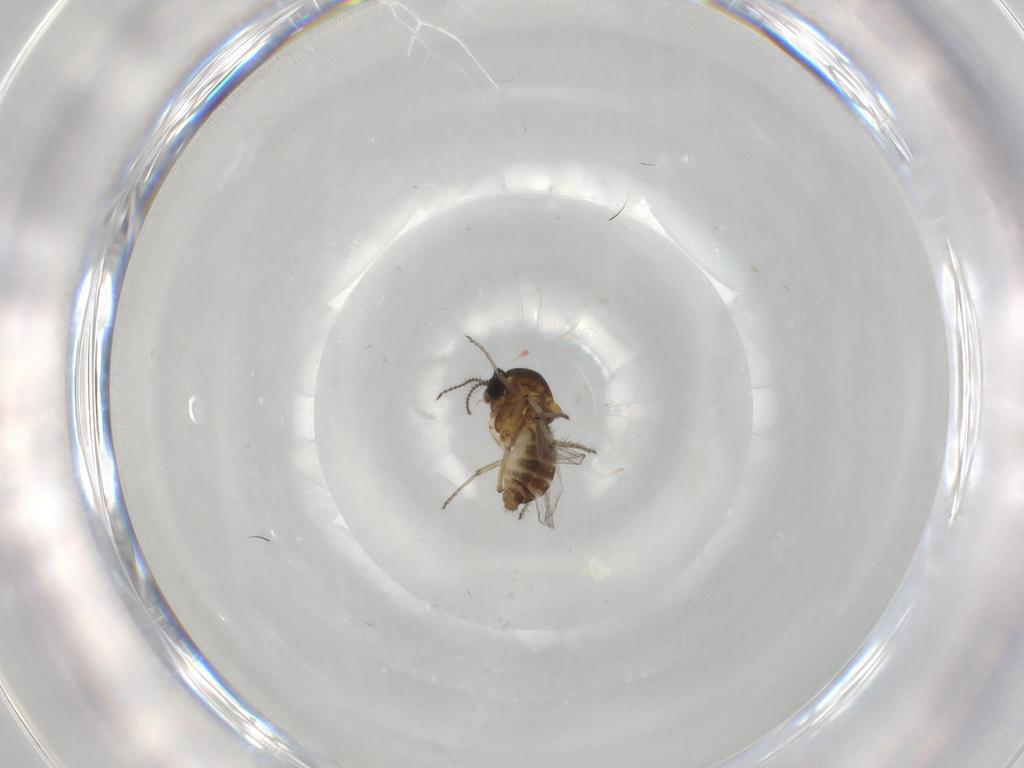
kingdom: Animalia
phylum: Arthropoda
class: Insecta
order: Diptera
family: Ceratopogonidae
